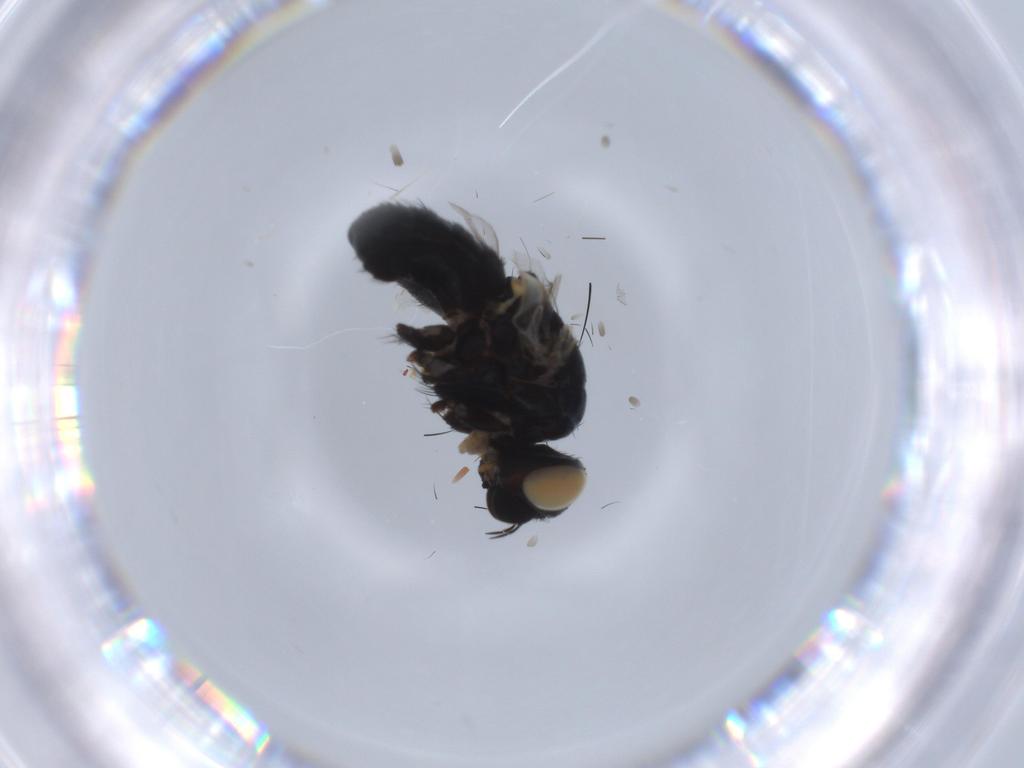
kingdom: Animalia
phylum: Arthropoda
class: Insecta
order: Diptera
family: Tachinidae
